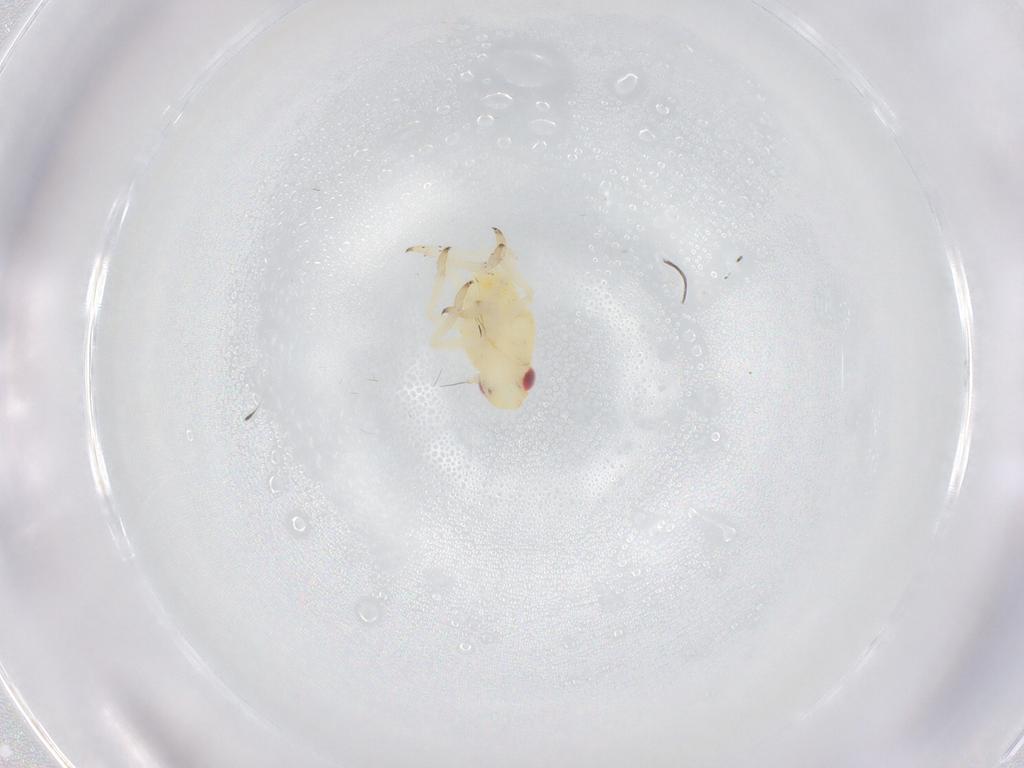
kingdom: Animalia
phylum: Arthropoda
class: Insecta
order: Hemiptera
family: Caliscelidae
